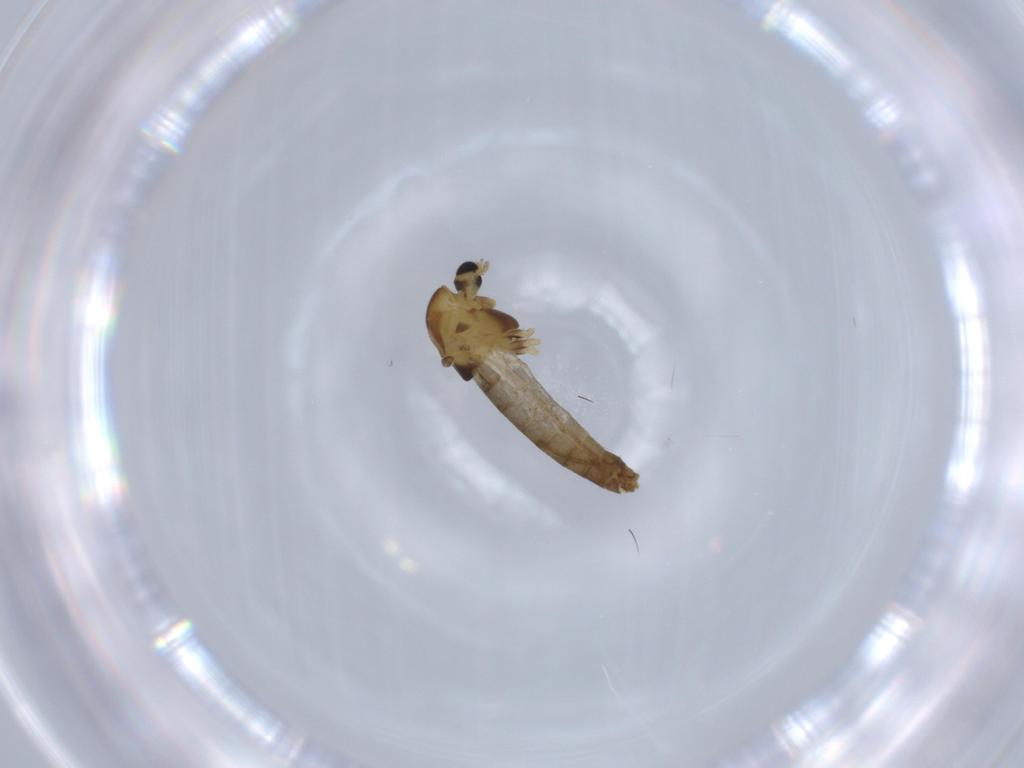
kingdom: Animalia
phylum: Arthropoda
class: Insecta
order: Diptera
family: Chironomidae
